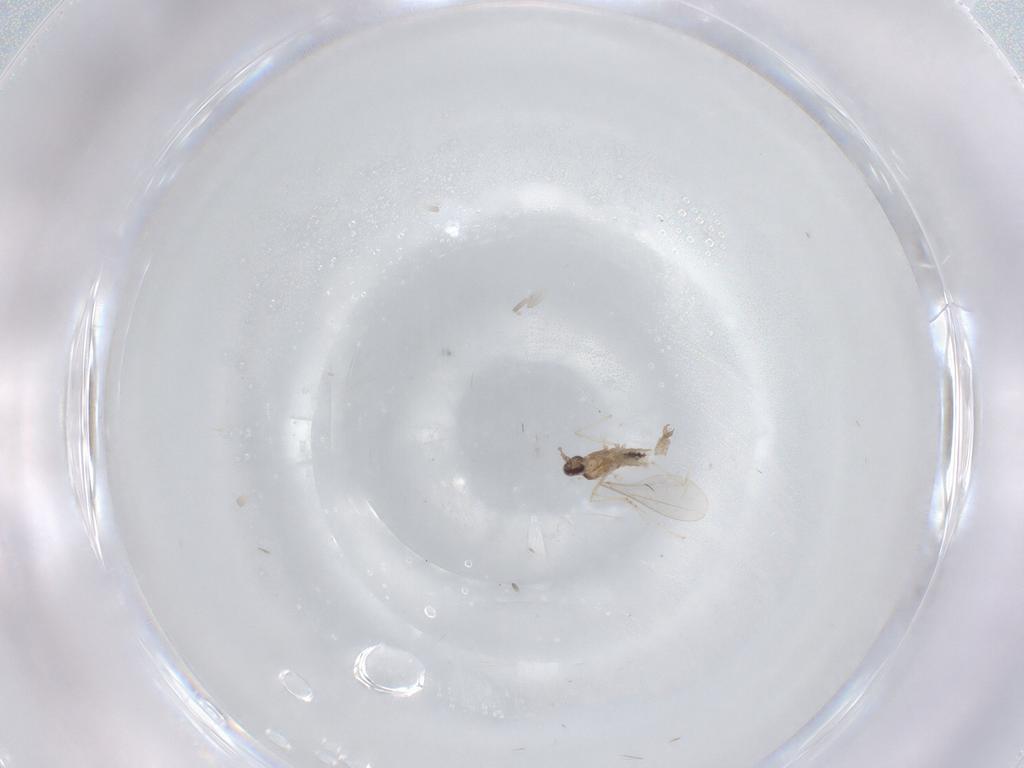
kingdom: Animalia
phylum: Arthropoda
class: Insecta
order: Diptera
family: Cecidomyiidae
